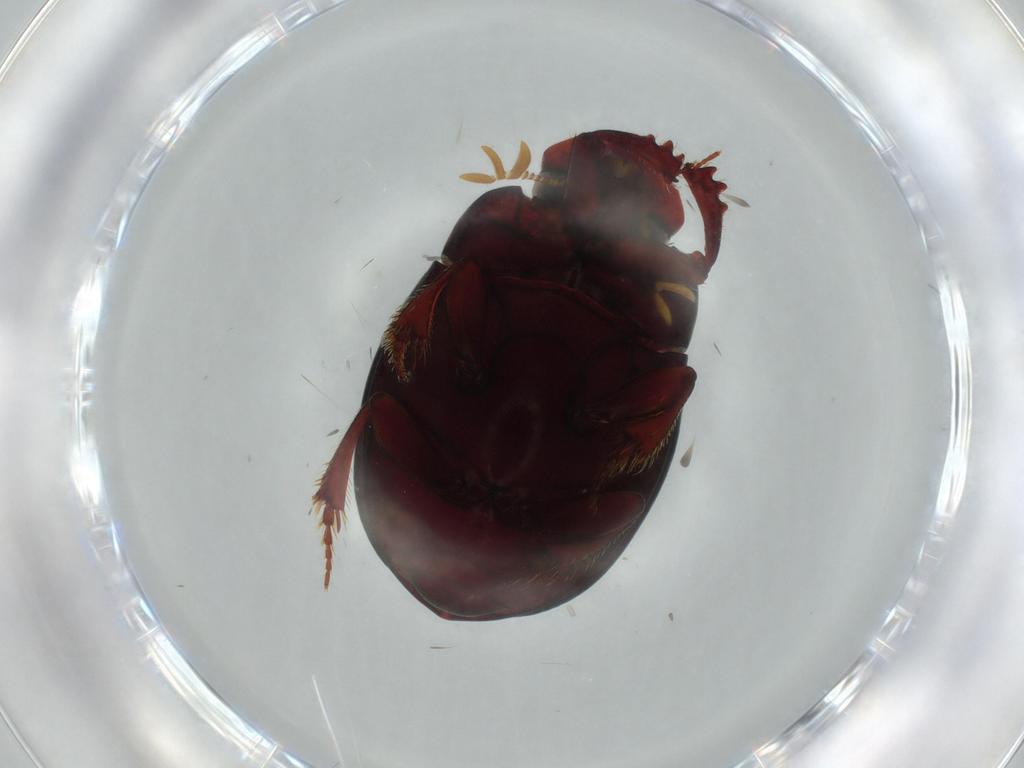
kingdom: Animalia
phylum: Arthropoda
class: Insecta
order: Coleoptera
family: Scarabaeidae
